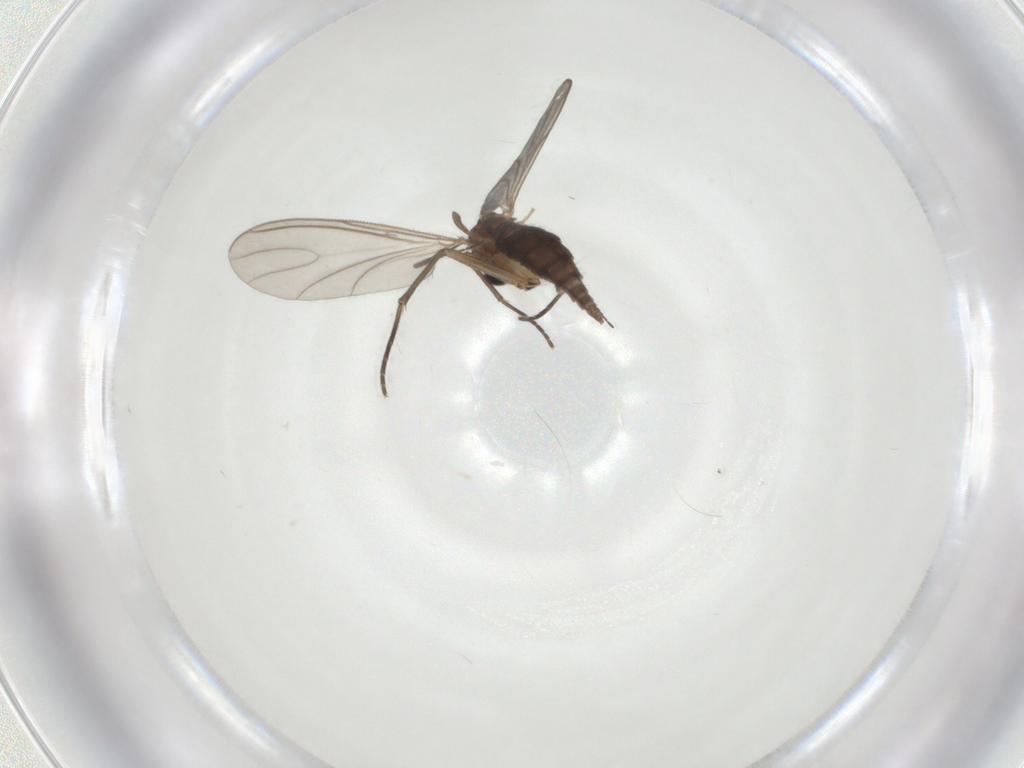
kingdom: Animalia
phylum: Arthropoda
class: Insecta
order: Diptera
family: Sciaridae
